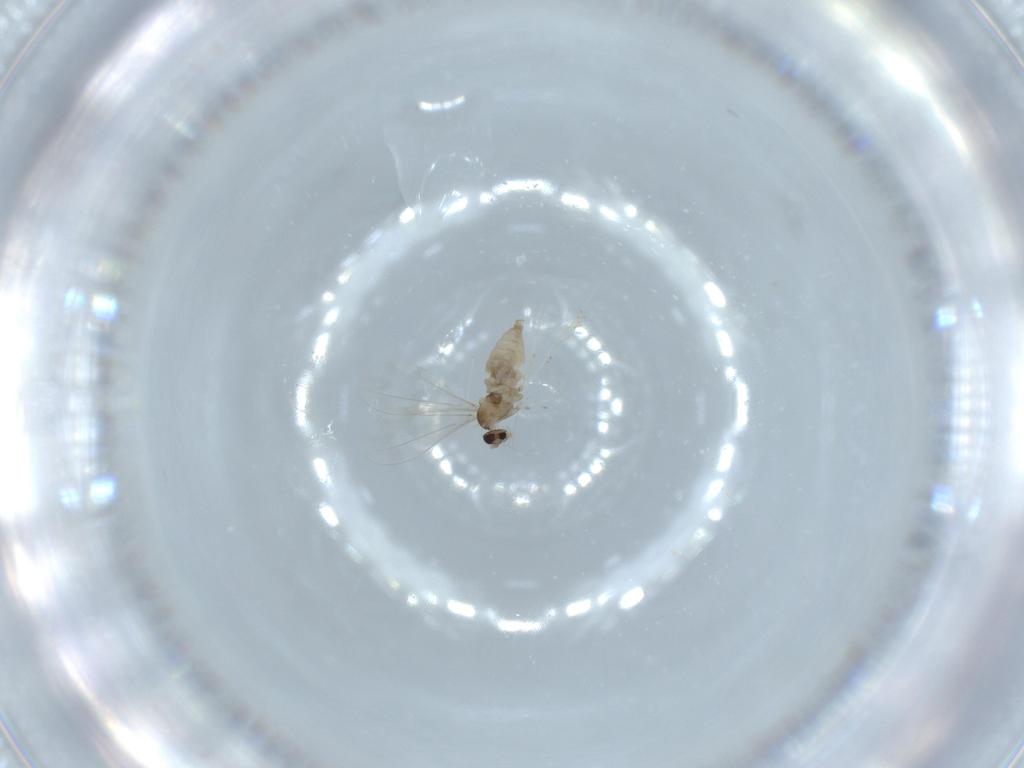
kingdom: Animalia
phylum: Arthropoda
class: Insecta
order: Diptera
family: Cecidomyiidae
